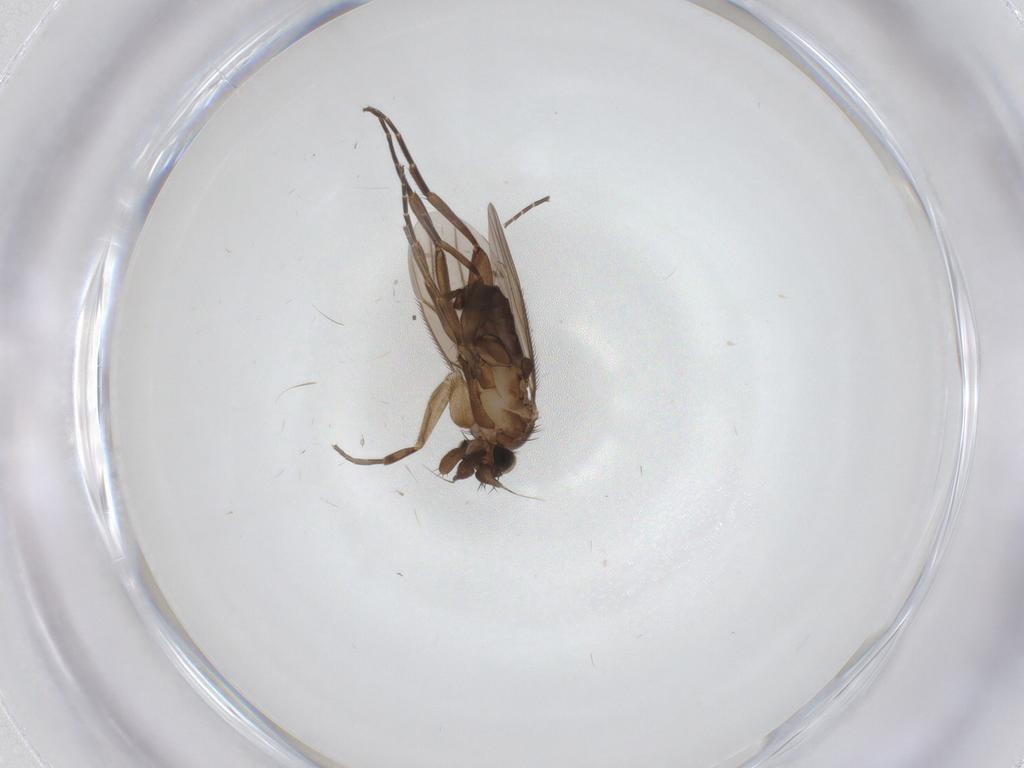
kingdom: Animalia
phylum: Arthropoda
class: Insecta
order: Diptera
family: Phoridae
